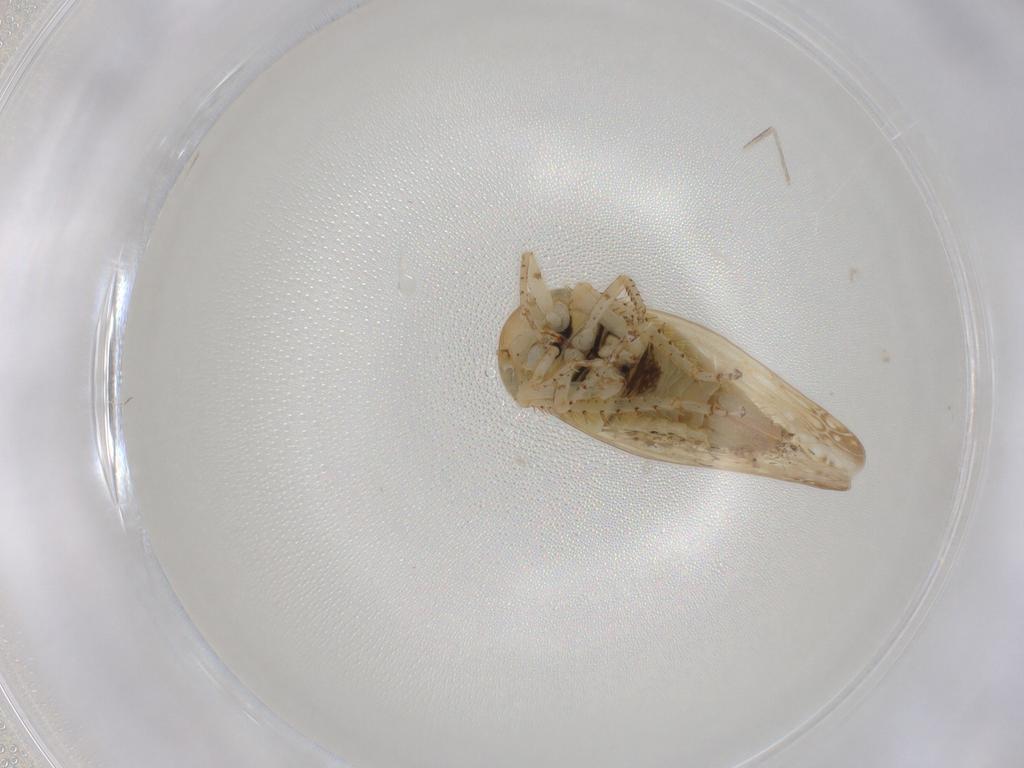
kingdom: Animalia
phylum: Arthropoda
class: Insecta
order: Hemiptera
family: Cicadellidae
